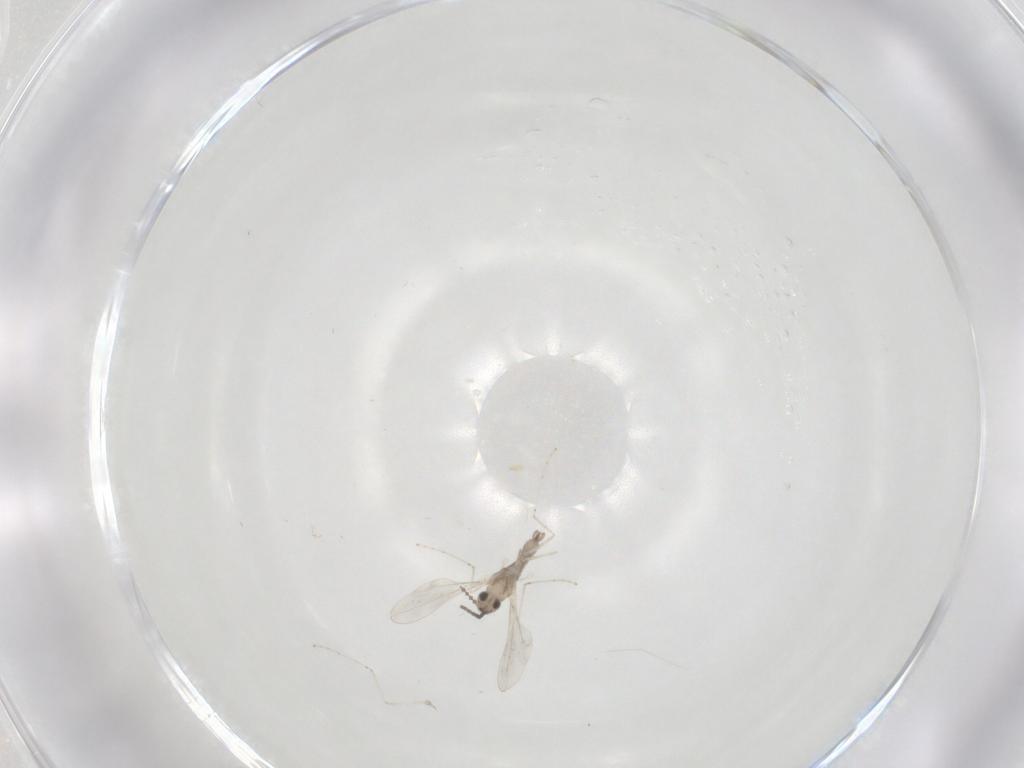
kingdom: Animalia
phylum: Arthropoda
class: Insecta
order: Diptera
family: Cecidomyiidae
